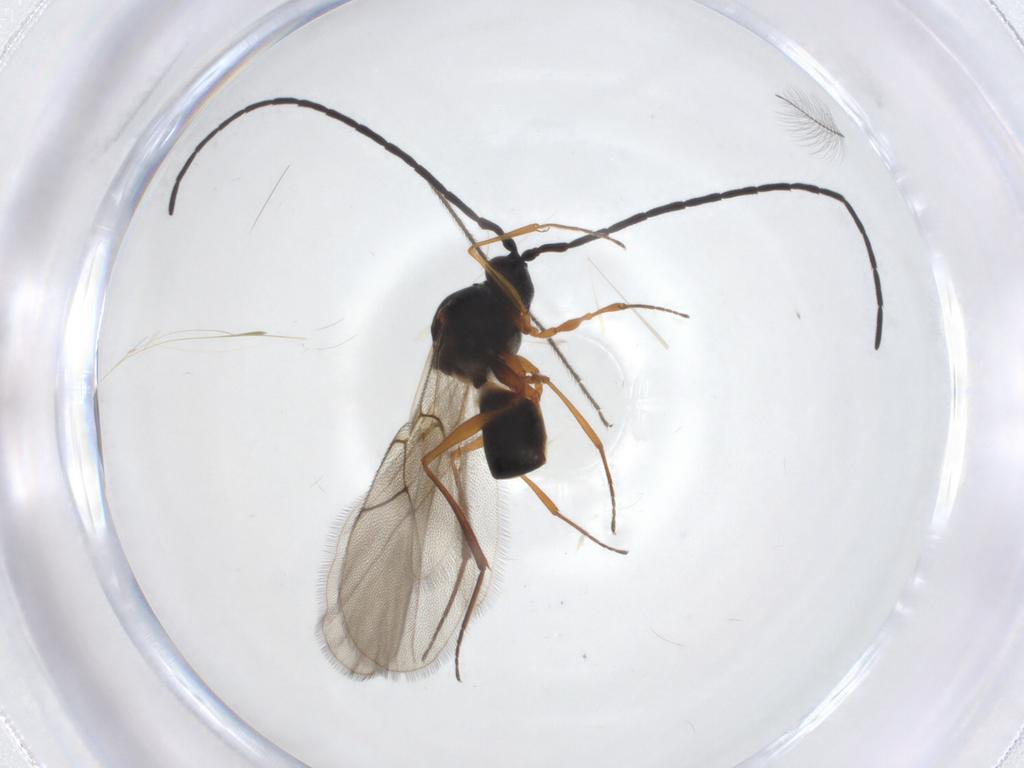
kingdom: Animalia
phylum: Arthropoda
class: Insecta
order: Hymenoptera
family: Figitidae
